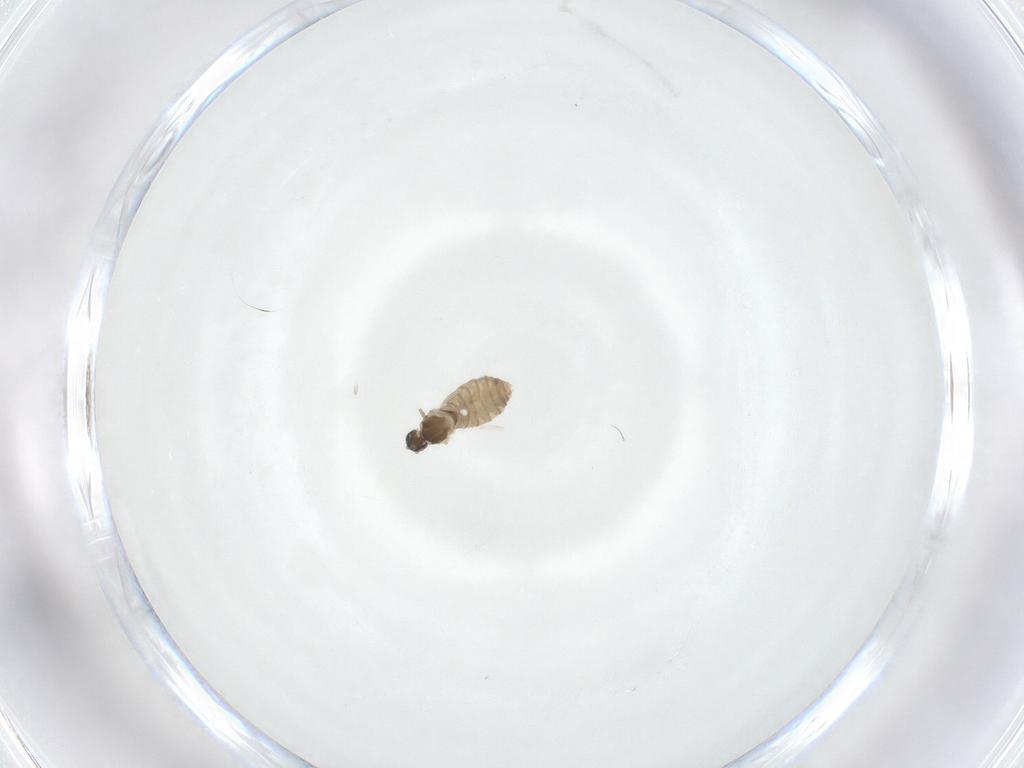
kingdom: Animalia
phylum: Arthropoda
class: Insecta
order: Diptera
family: Cecidomyiidae
